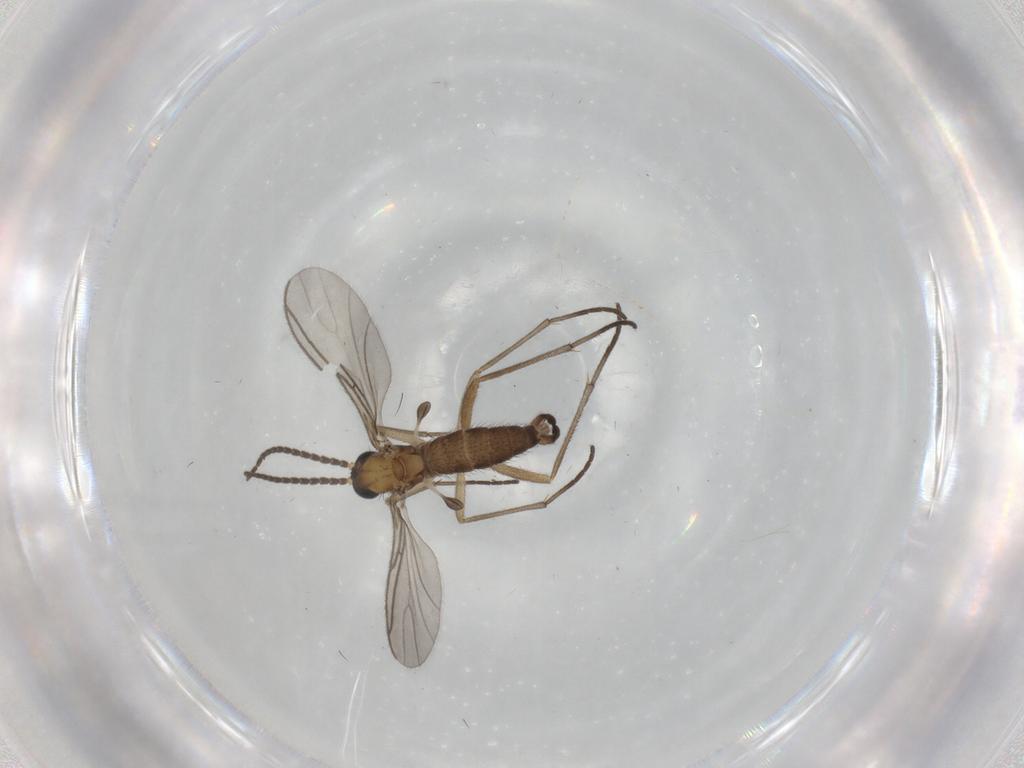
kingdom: Animalia
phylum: Arthropoda
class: Insecta
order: Diptera
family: Sciaridae
